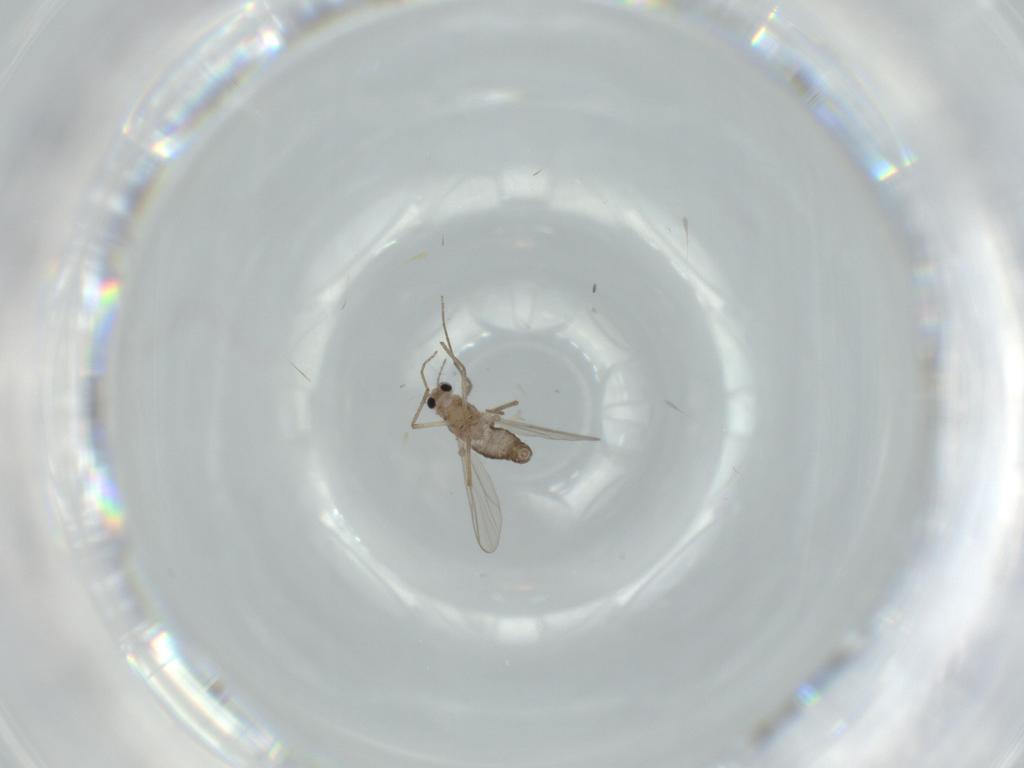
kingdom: Animalia
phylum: Arthropoda
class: Insecta
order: Diptera
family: Chironomidae
